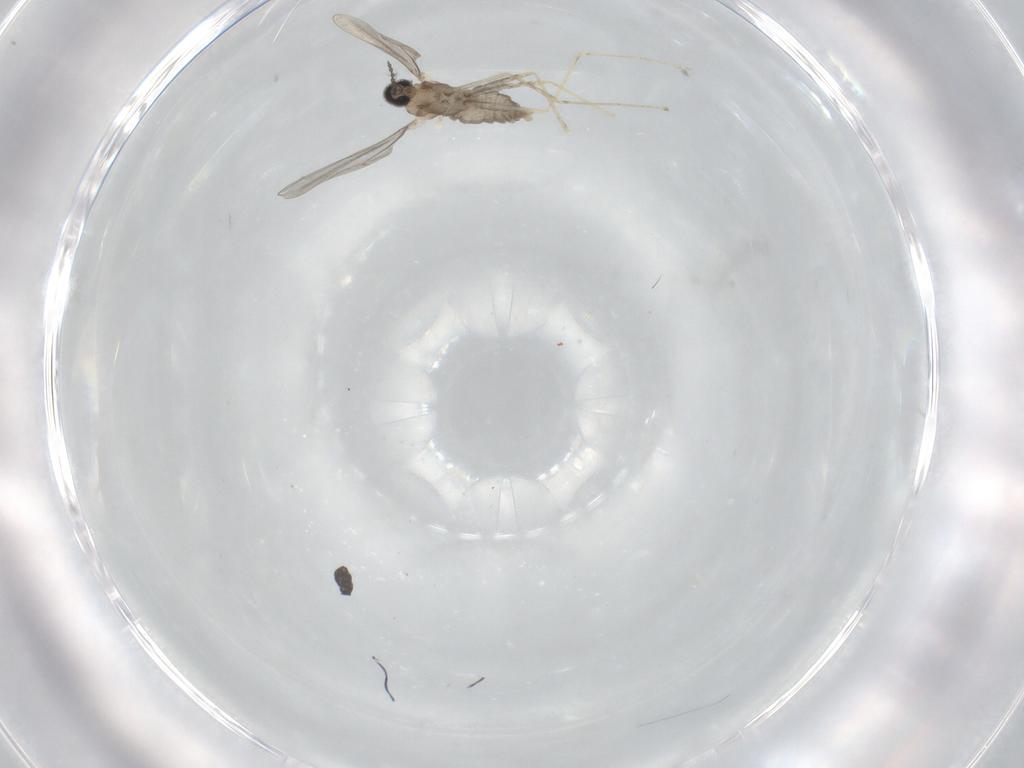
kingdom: Animalia
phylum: Arthropoda
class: Insecta
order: Diptera
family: Cecidomyiidae
